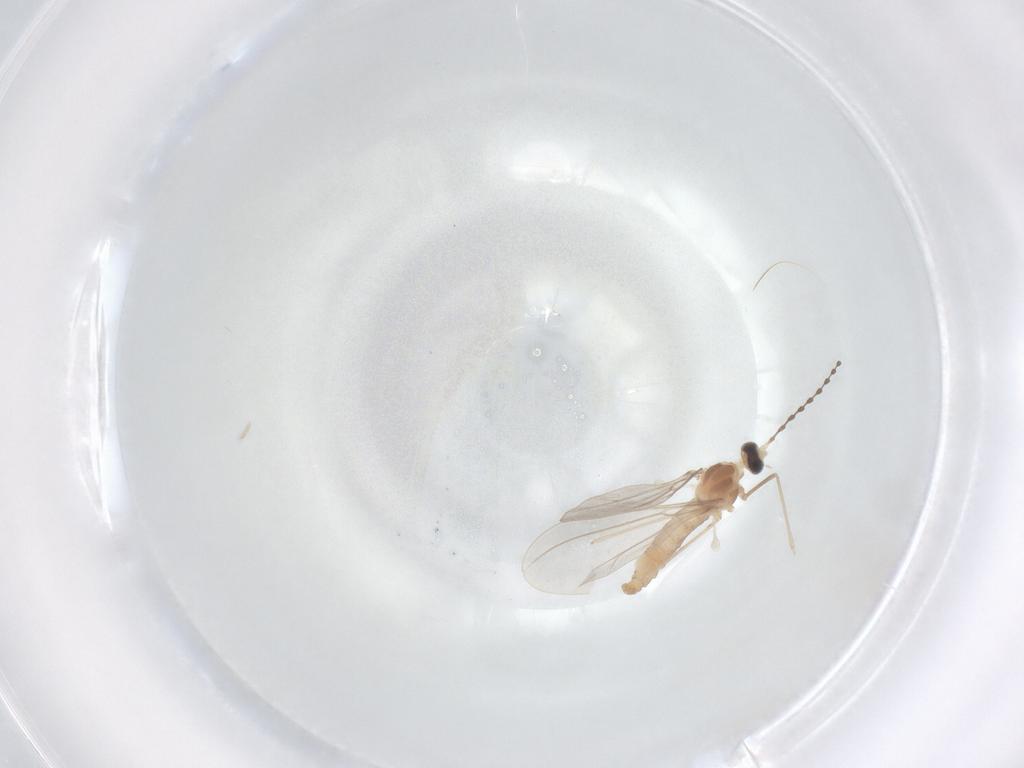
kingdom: Animalia
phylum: Arthropoda
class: Insecta
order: Diptera
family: Cecidomyiidae
